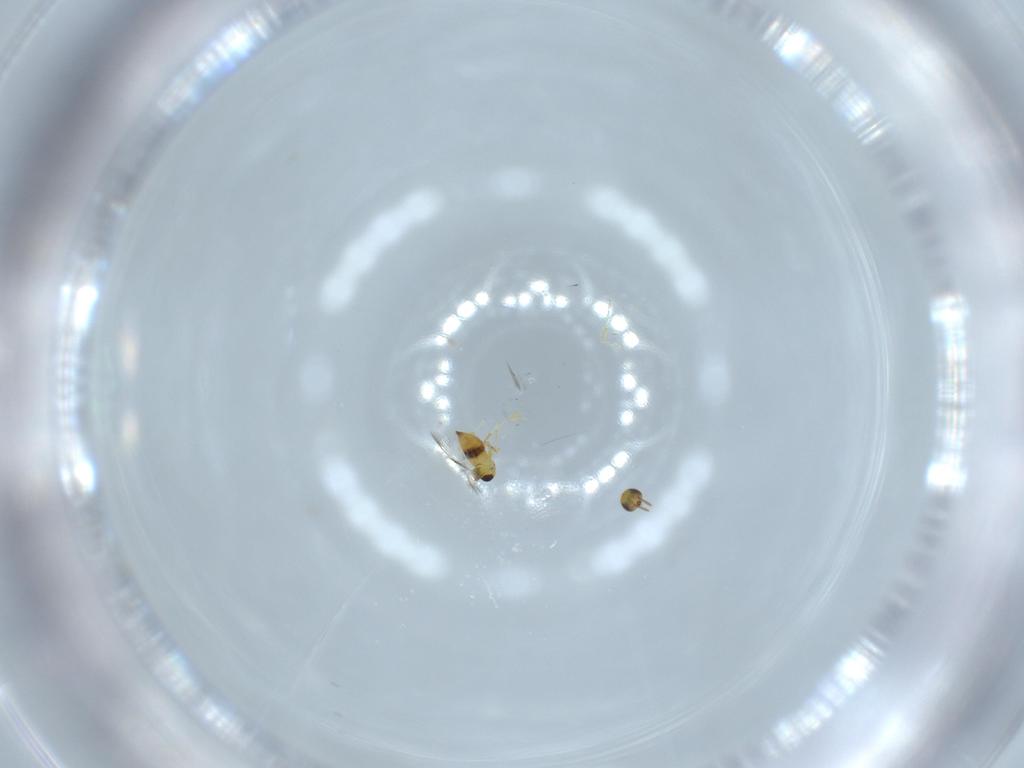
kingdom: Animalia
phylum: Arthropoda
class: Insecta
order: Hymenoptera
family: Signiphoridae
